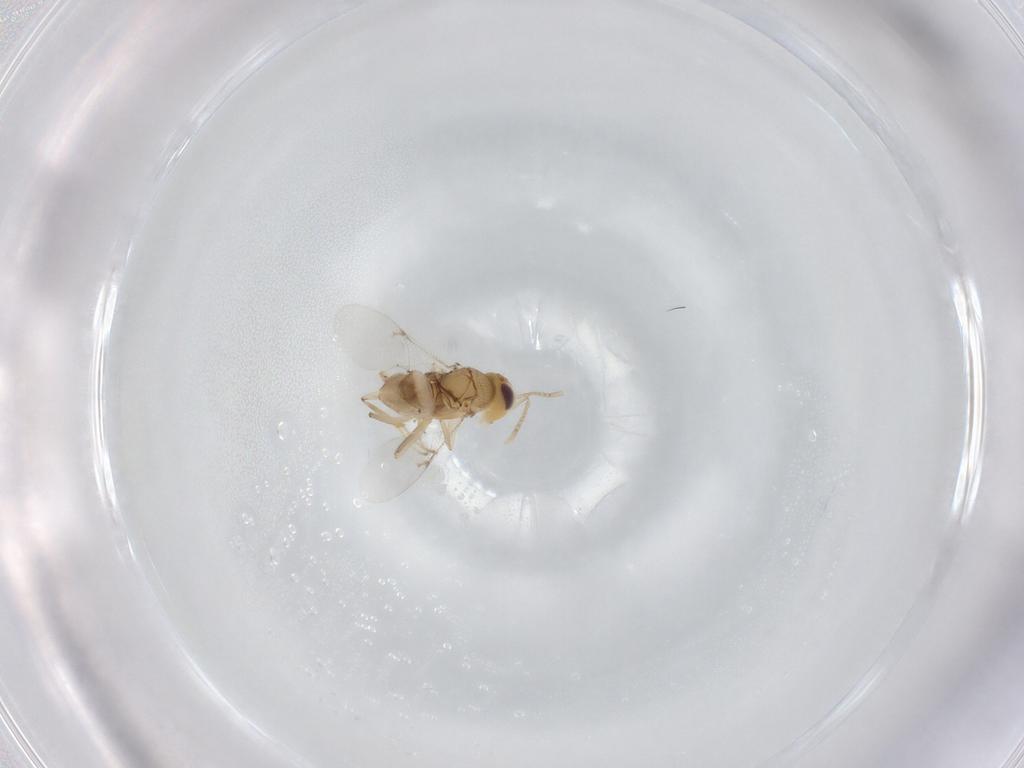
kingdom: Animalia
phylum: Arthropoda
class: Insecta
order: Hymenoptera
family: Encyrtidae
